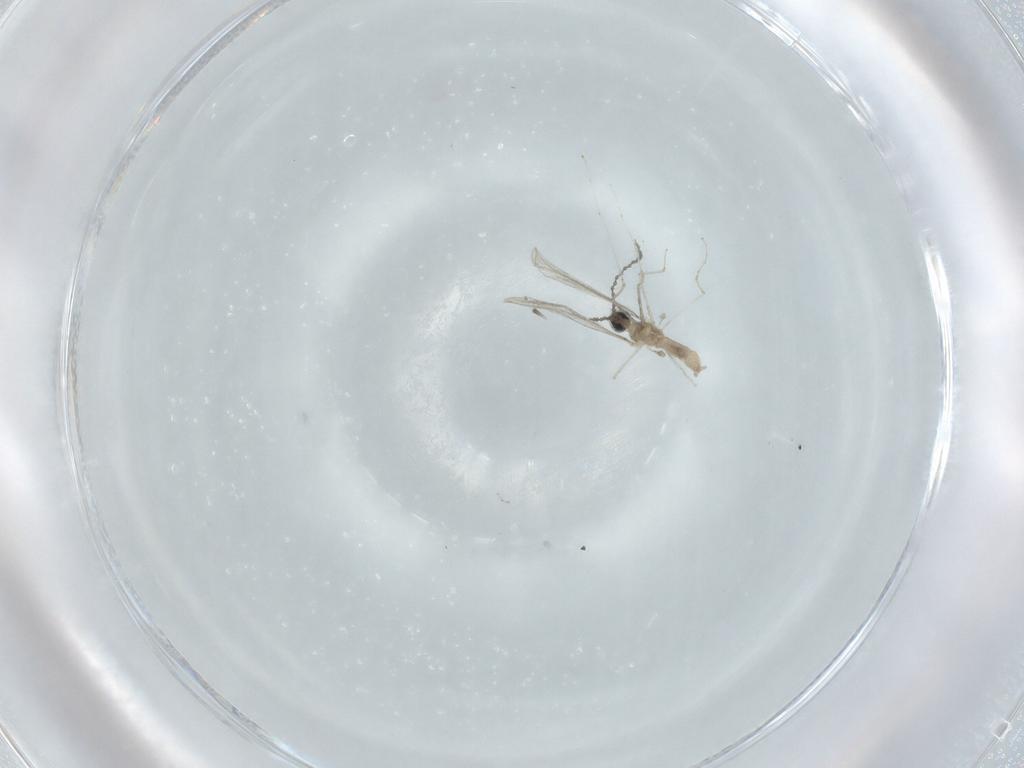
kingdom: Animalia
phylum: Arthropoda
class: Insecta
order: Diptera
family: Cecidomyiidae
